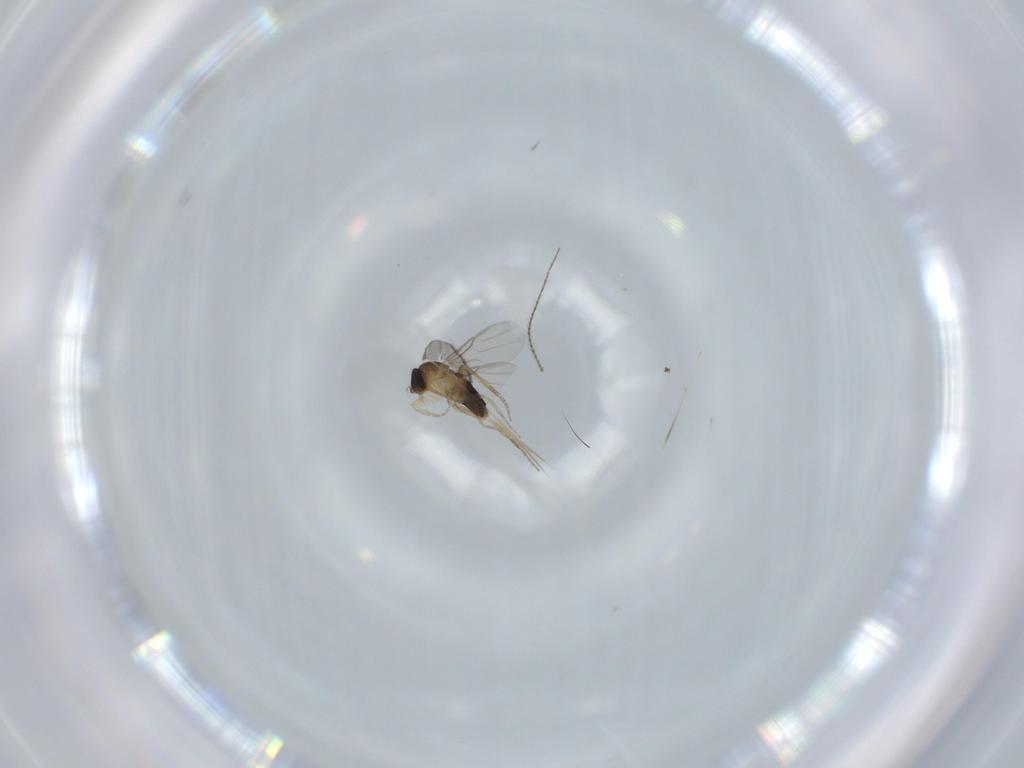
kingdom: Animalia
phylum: Arthropoda
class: Insecta
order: Diptera
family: Phoridae
